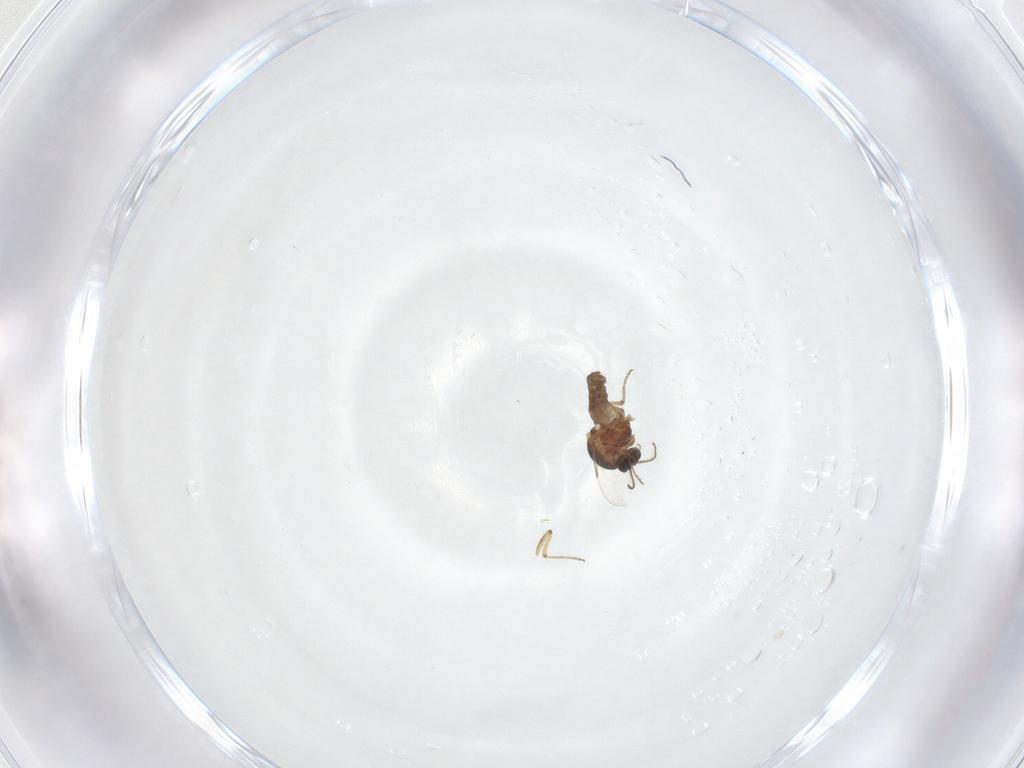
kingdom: Animalia
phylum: Arthropoda
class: Insecta
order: Diptera
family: Ceratopogonidae
